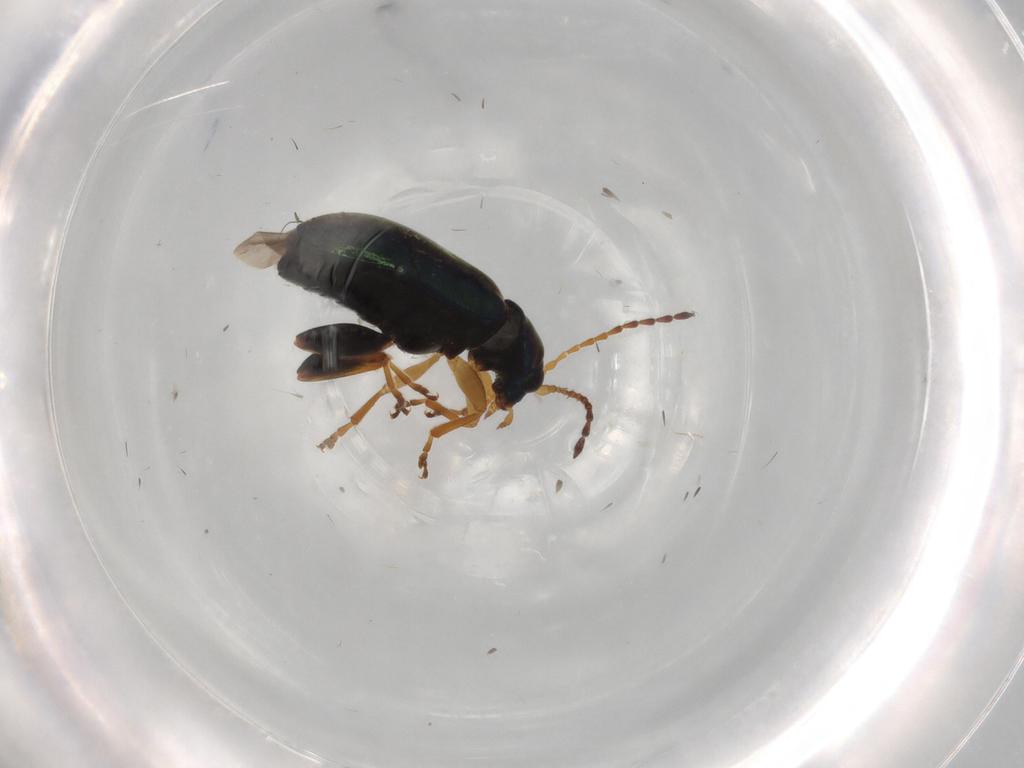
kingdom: Animalia
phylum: Arthropoda
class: Insecta
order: Coleoptera
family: Chrysomelidae
